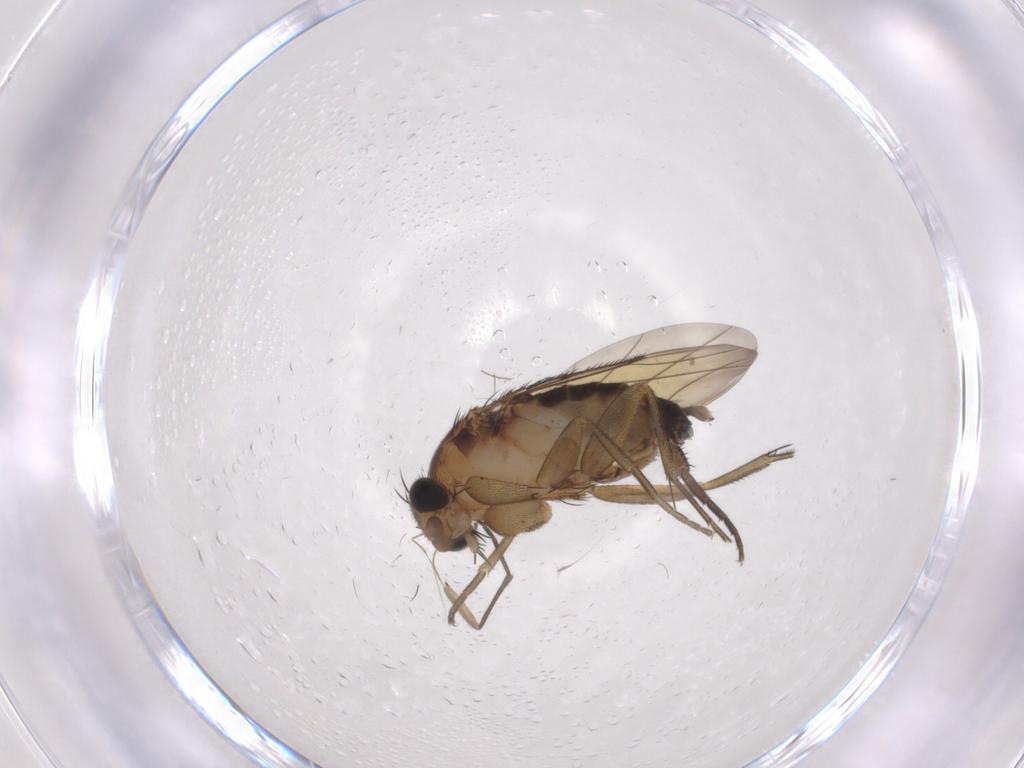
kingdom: Animalia
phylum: Arthropoda
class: Insecta
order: Diptera
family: Phoridae
